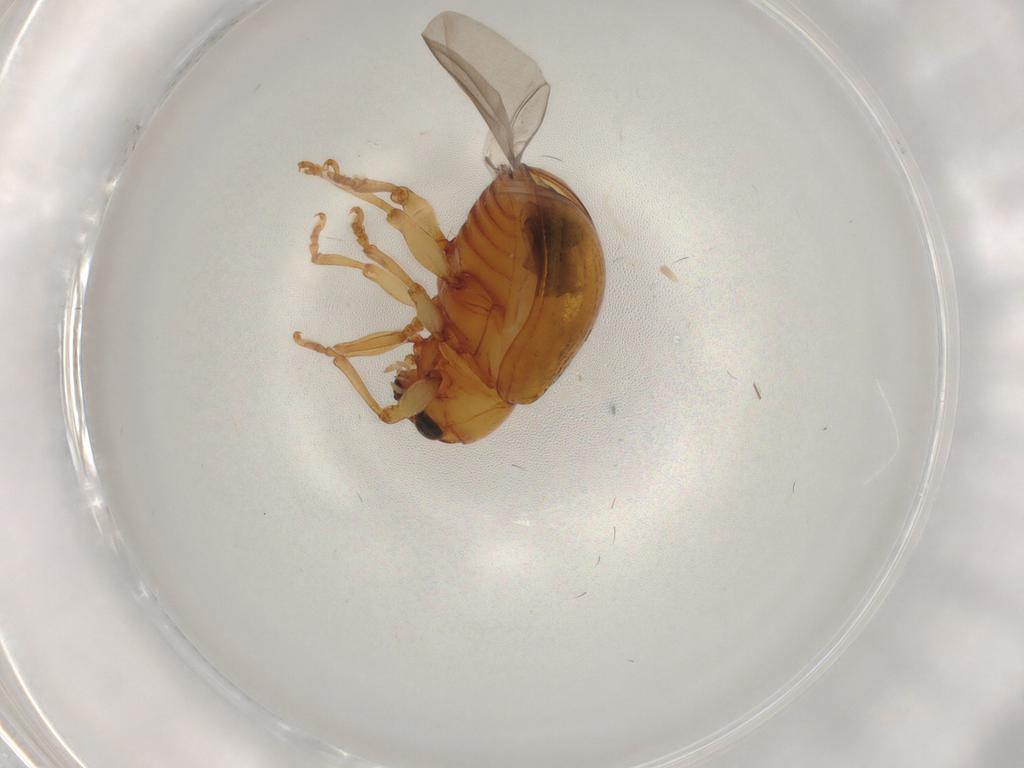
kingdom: Animalia
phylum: Arthropoda
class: Insecta
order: Coleoptera
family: Chrysomelidae
